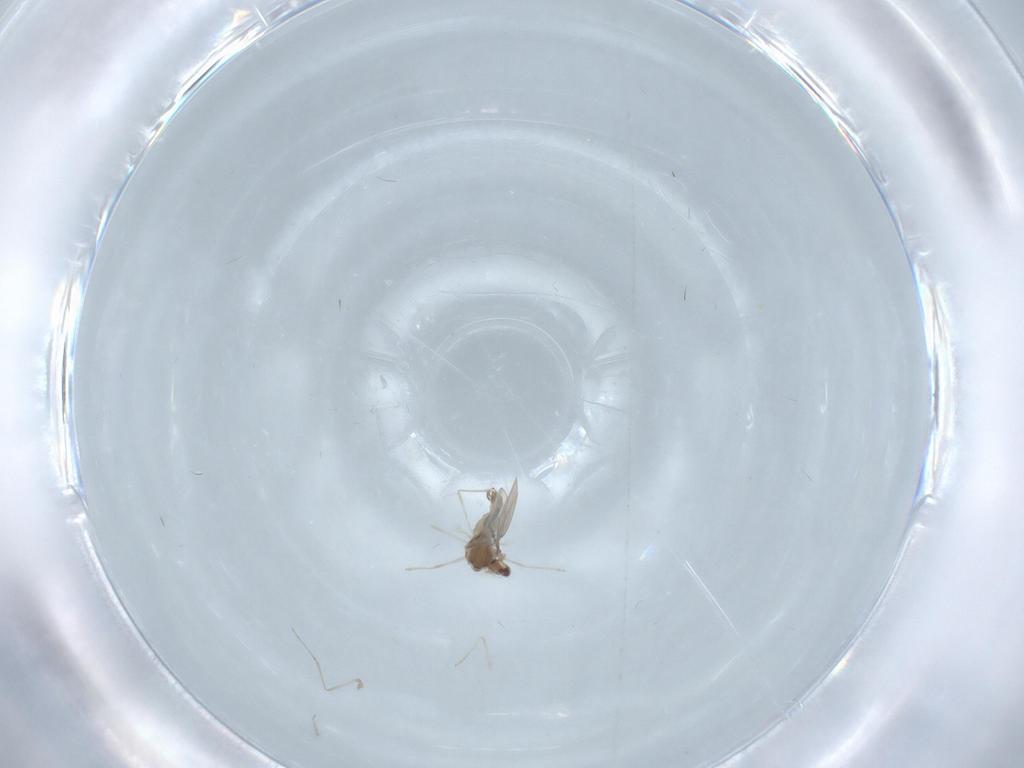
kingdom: Animalia
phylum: Arthropoda
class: Insecta
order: Diptera
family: Cecidomyiidae
